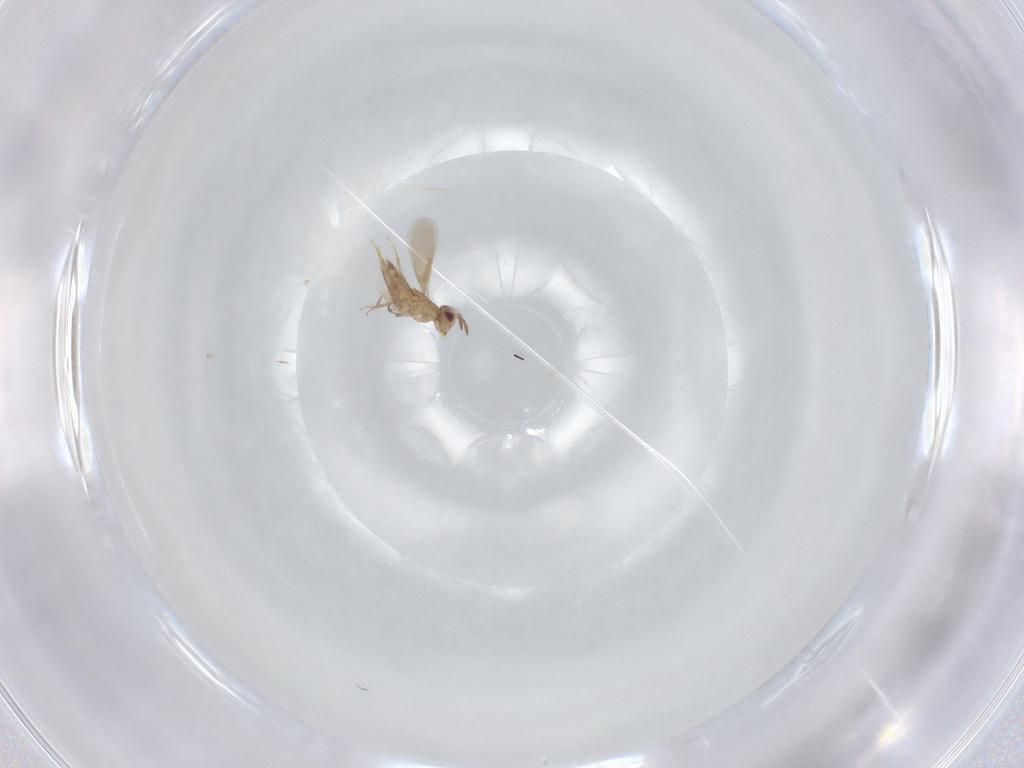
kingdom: Animalia
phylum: Arthropoda
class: Insecta
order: Hymenoptera
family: Aphelinidae
